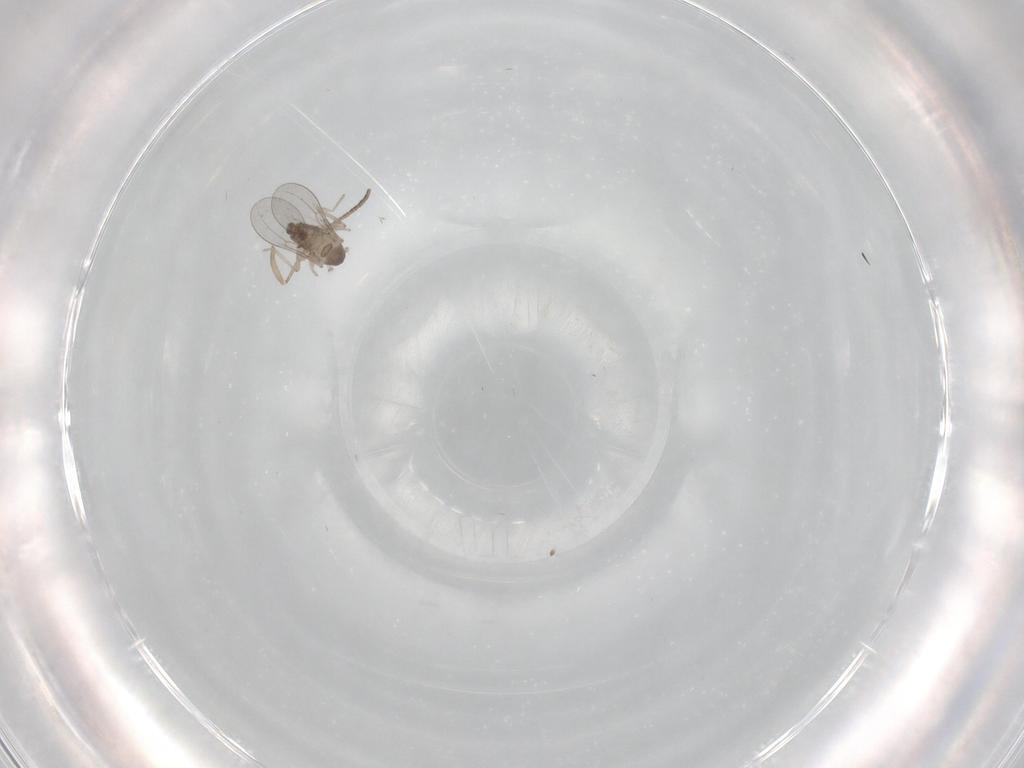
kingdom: Animalia
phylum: Arthropoda
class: Insecta
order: Diptera
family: Cecidomyiidae
